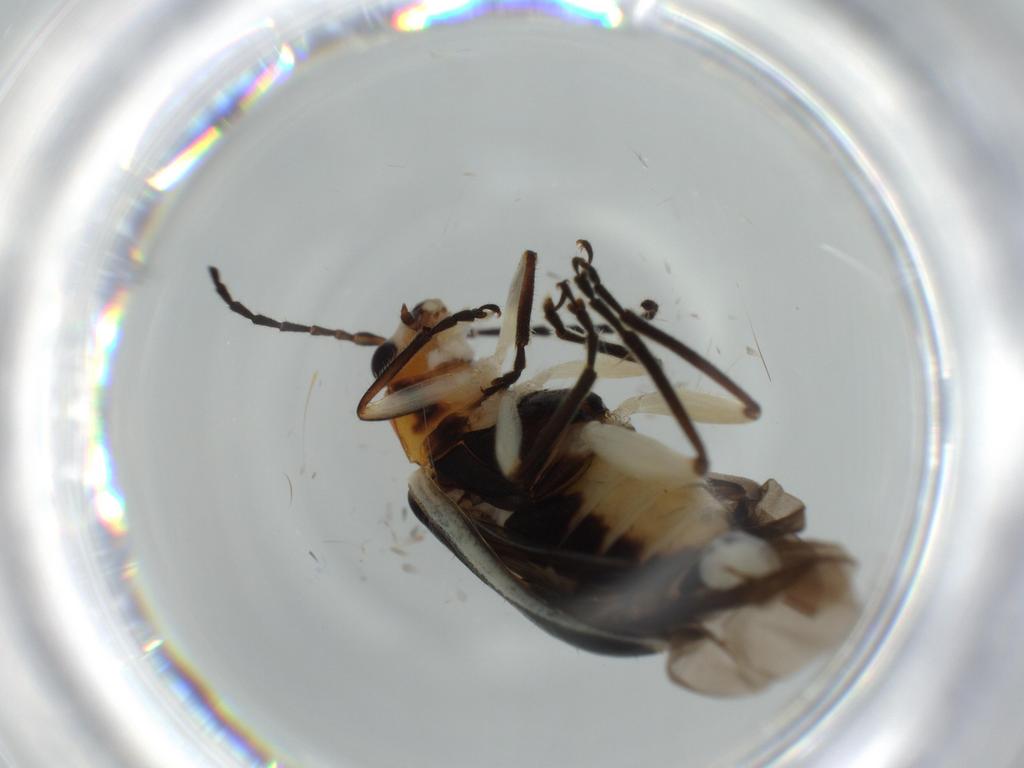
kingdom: Animalia
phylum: Arthropoda
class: Insecta
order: Coleoptera
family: Chrysomelidae
